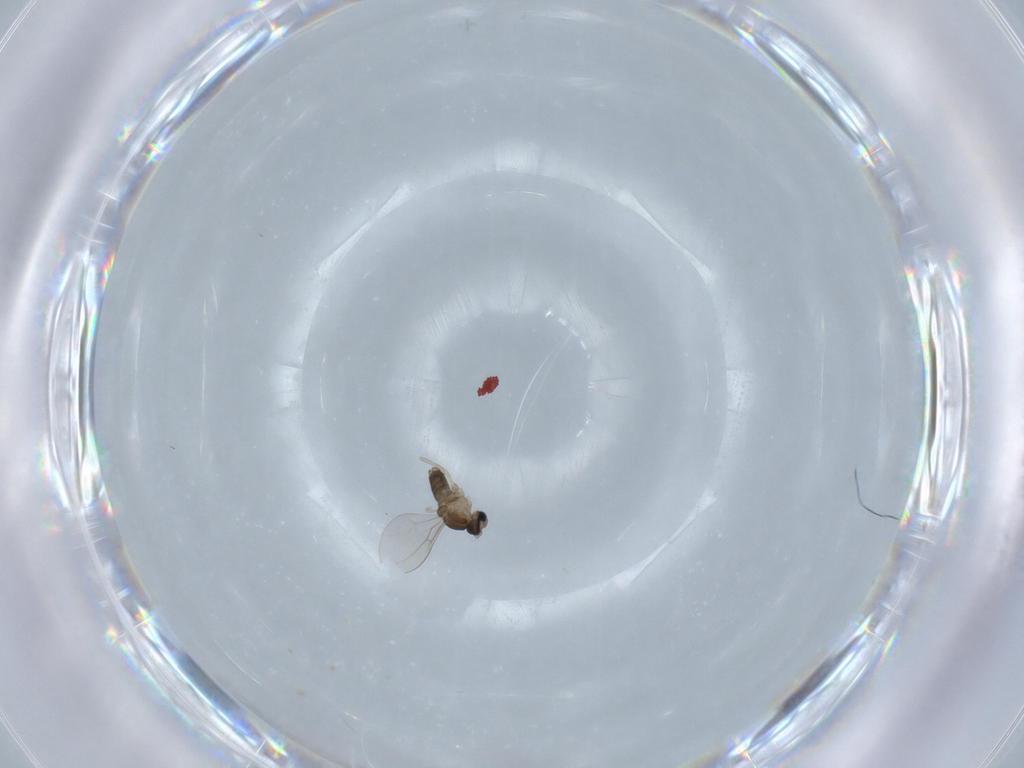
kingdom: Animalia
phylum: Arthropoda
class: Insecta
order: Diptera
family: Cecidomyiidae
